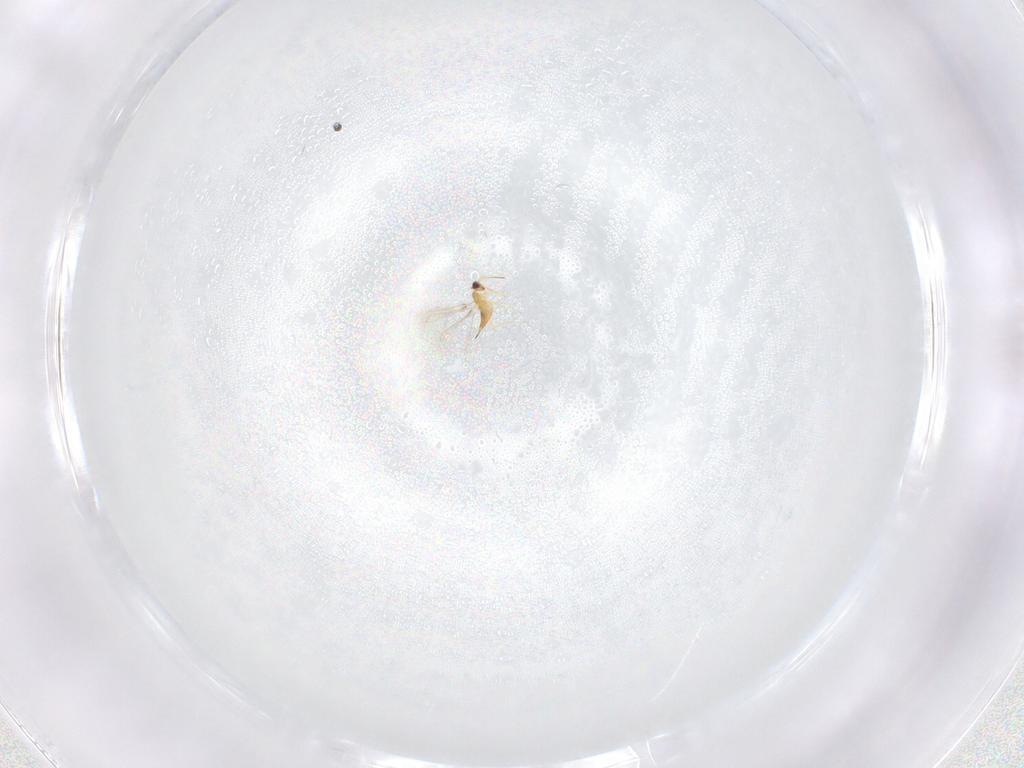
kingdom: Animalia
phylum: Arthropoda
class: Insecta
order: Hymenoptera
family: Mymaridae
